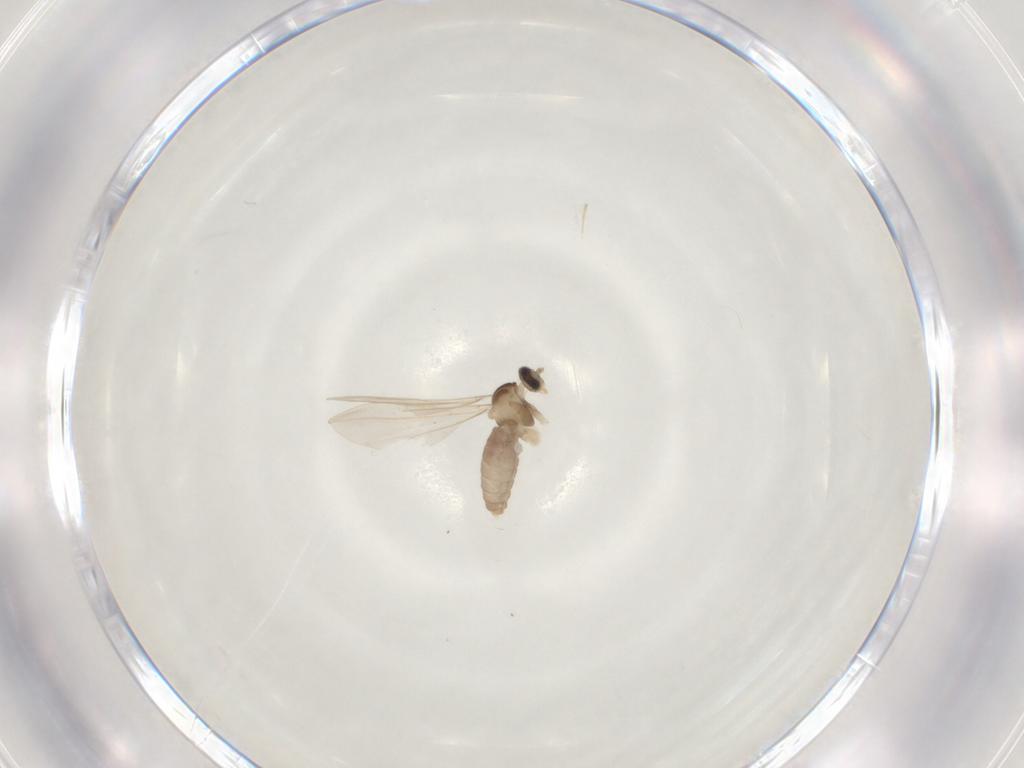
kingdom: Animalia
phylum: Arthropoda
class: Insecta
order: Diptera
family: Cecidomyiidae
